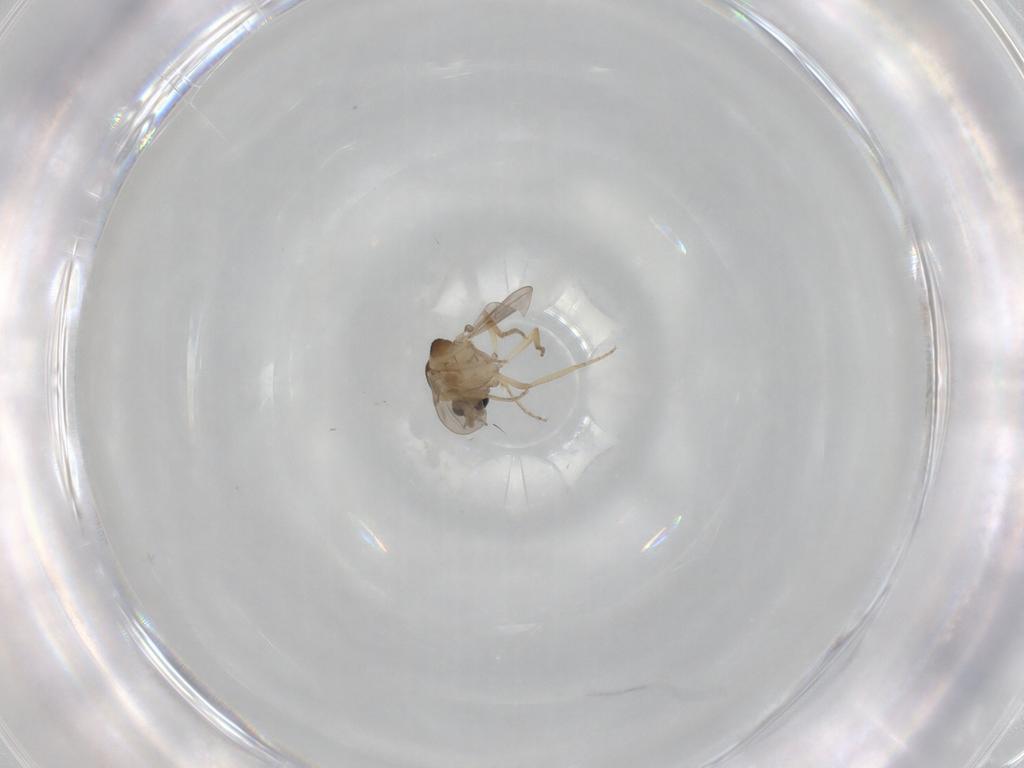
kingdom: Animalia
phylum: Arthropoda
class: Insecta
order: Diptera
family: Ceratopogonidae
